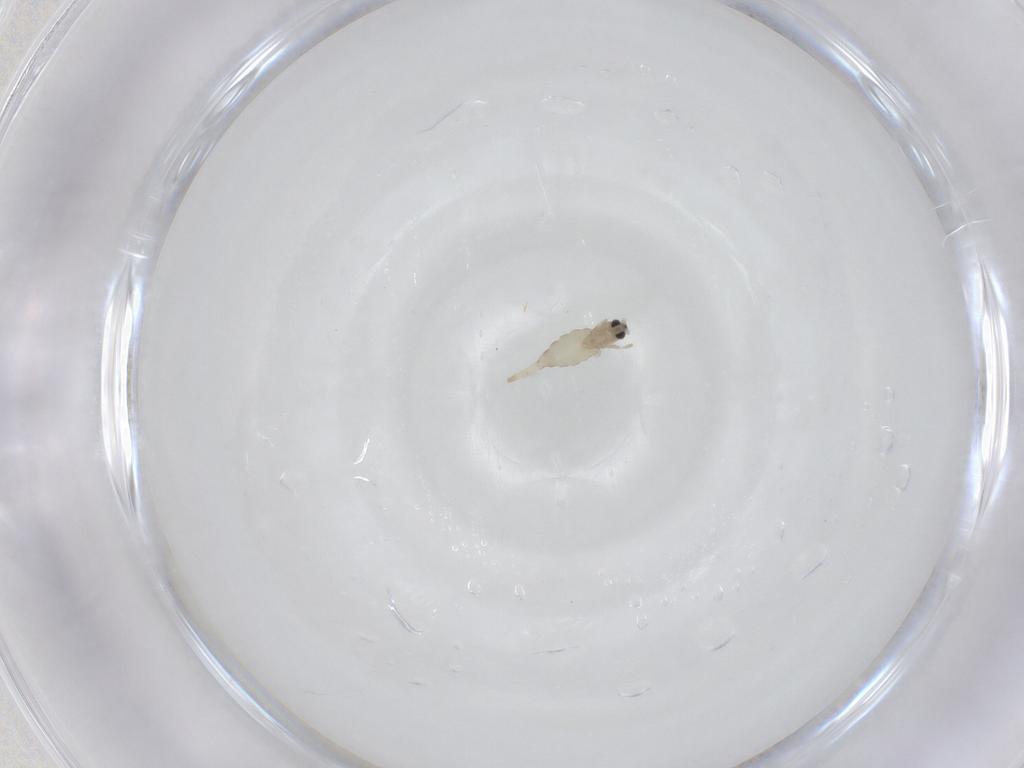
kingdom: Animalia
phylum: Arthropoda
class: Insecta
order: Diptera
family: Cecidomyiidae
